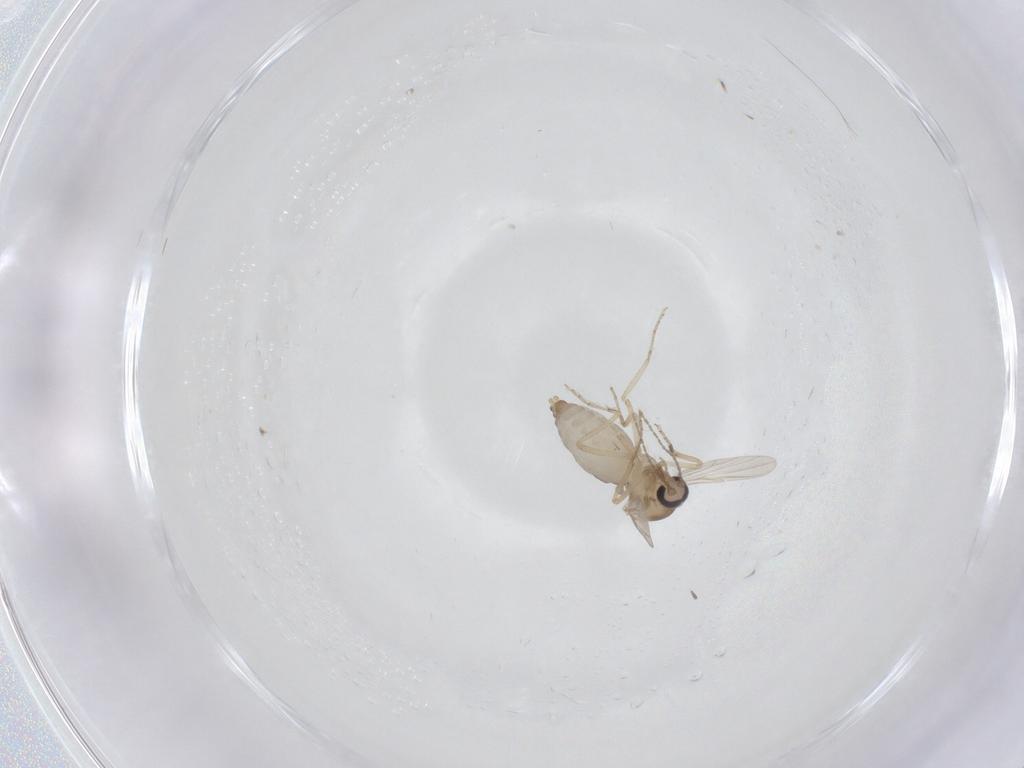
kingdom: Animalia
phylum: Arthropoda
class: Insecta
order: Diptera
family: Ceratopogonidae
